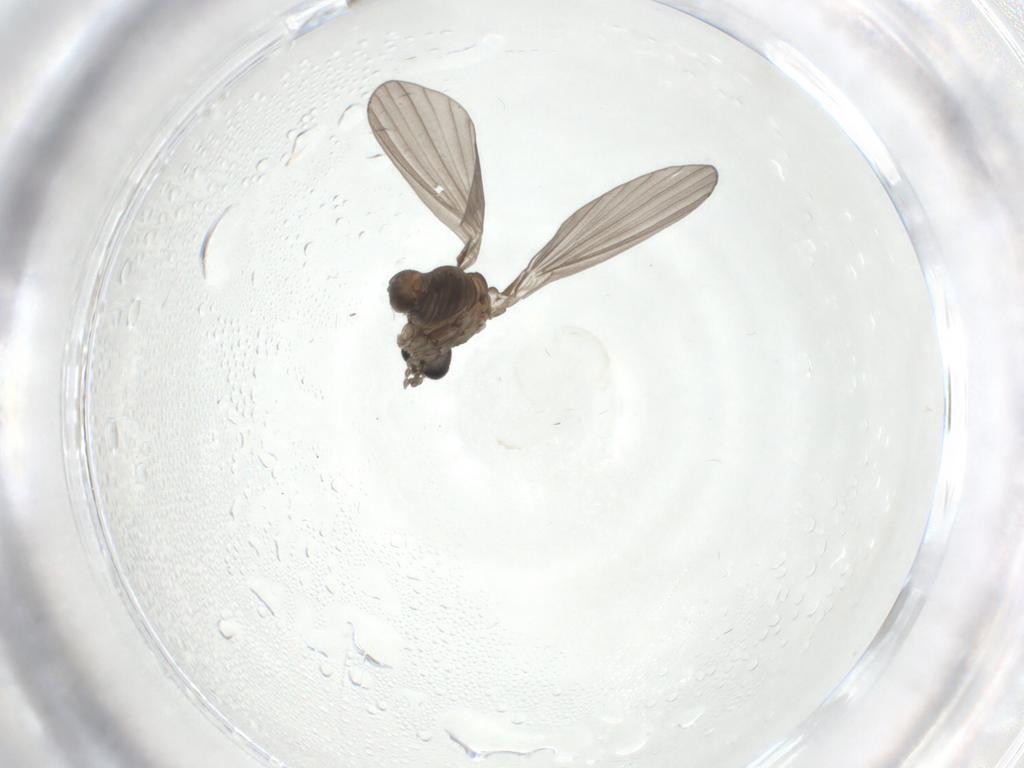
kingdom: Animalia
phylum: Arthropoda
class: Insecta
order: Diptera
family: Psychodidae
